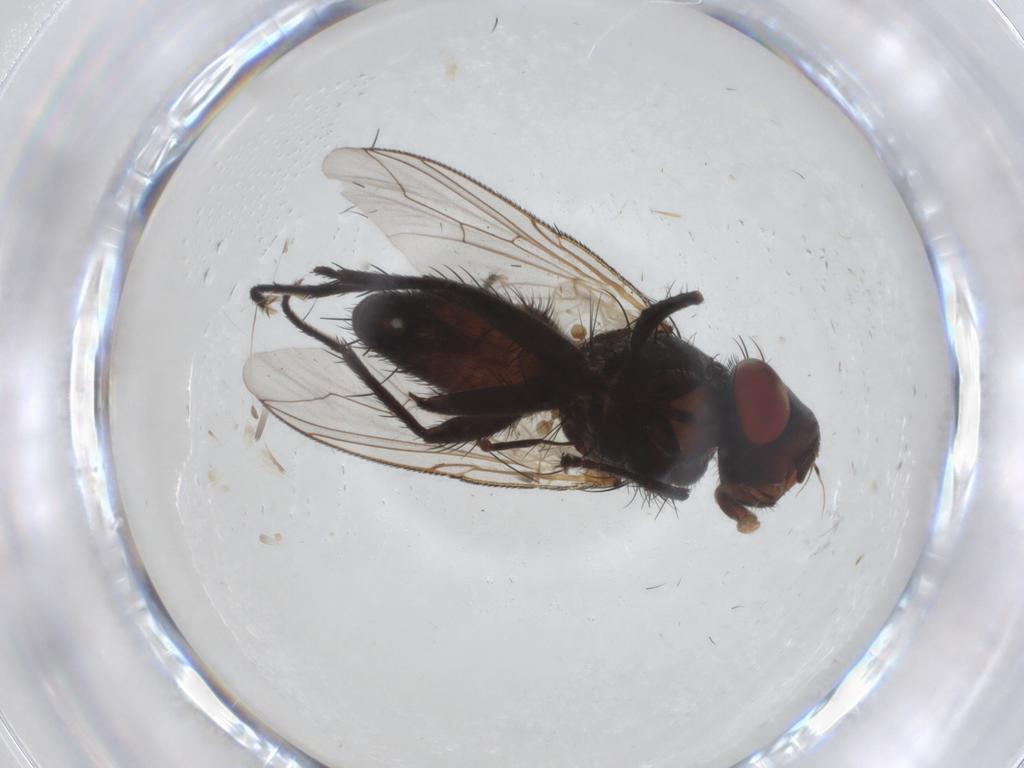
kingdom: Animalia
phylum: Arthropoda
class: Insecta
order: Diptera
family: Sarcophagidae
